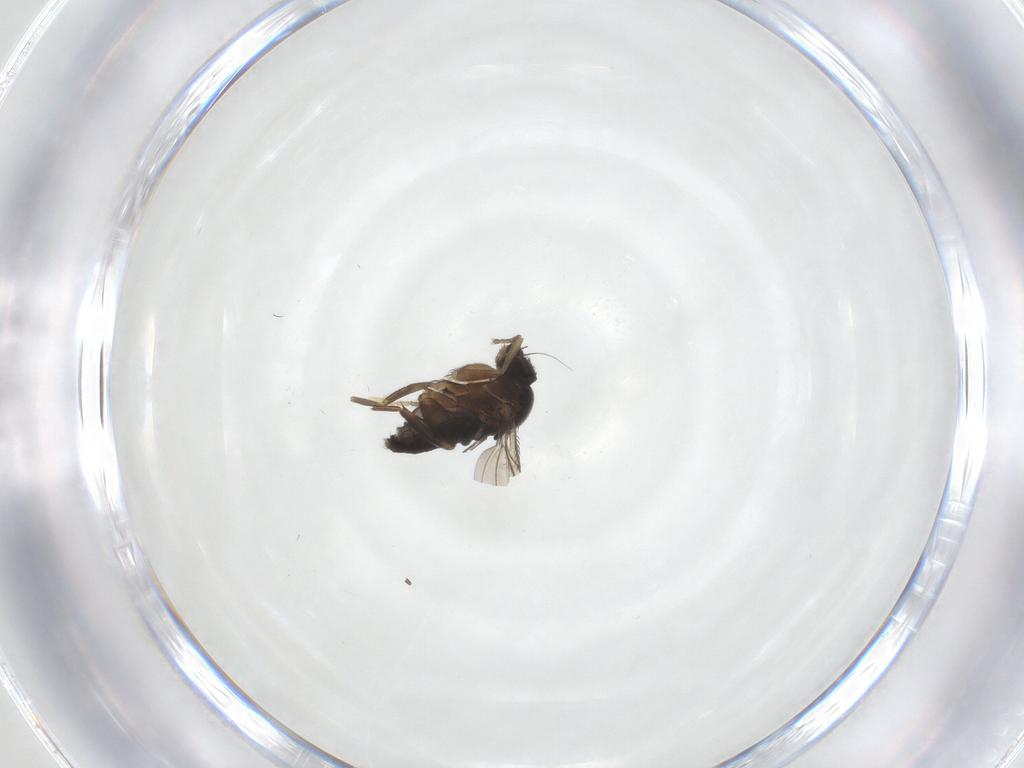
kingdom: Animalia
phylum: Arthropoda
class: Insecta
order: Diptera
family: Phoridae
